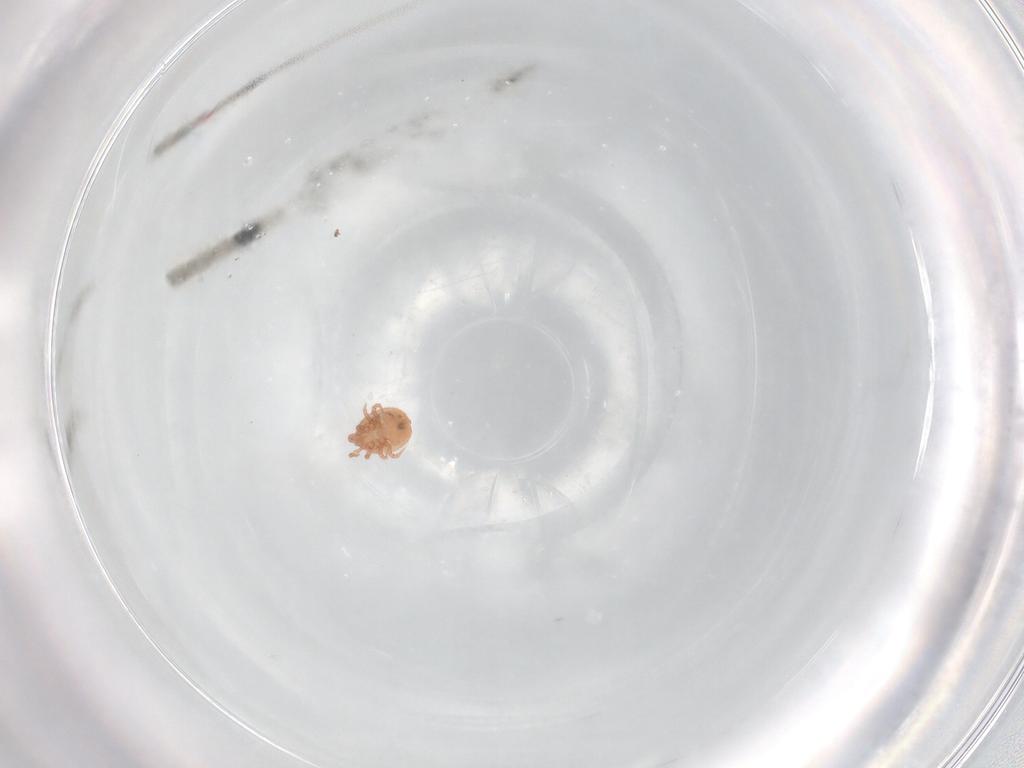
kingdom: Animalia
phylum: Arthropoda
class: Arachnida
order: Mesostigmata
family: Zerconidae
